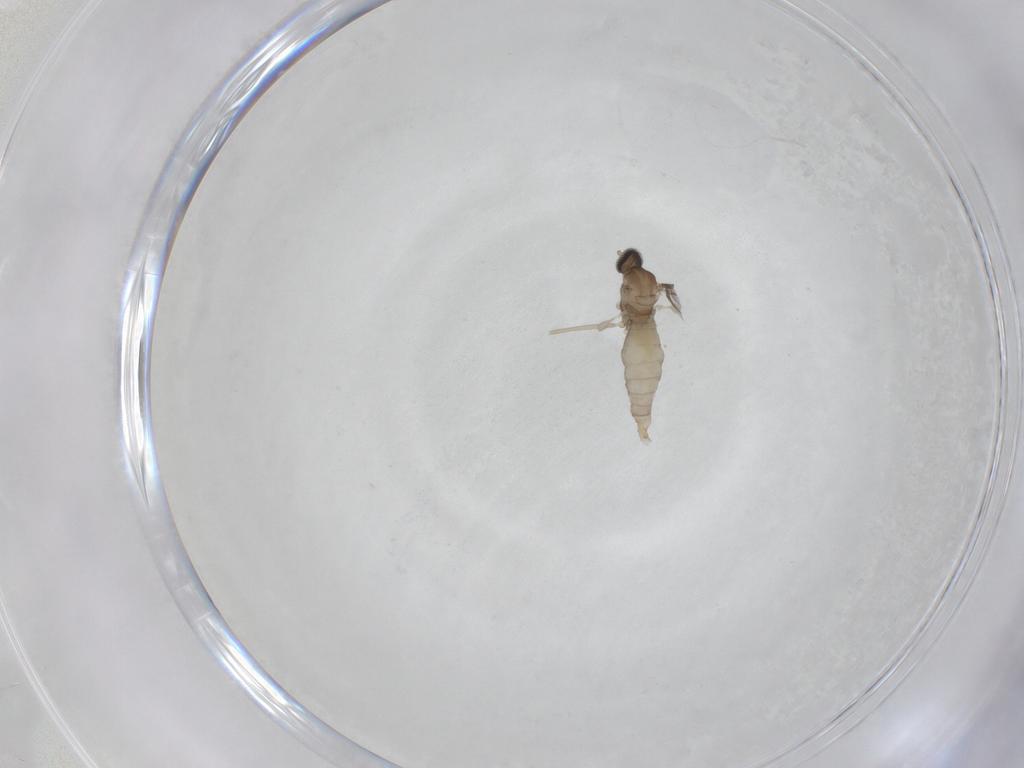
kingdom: Animalia
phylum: Arthropoda
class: Insecta
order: Diptera
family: Cecidomyiidae
